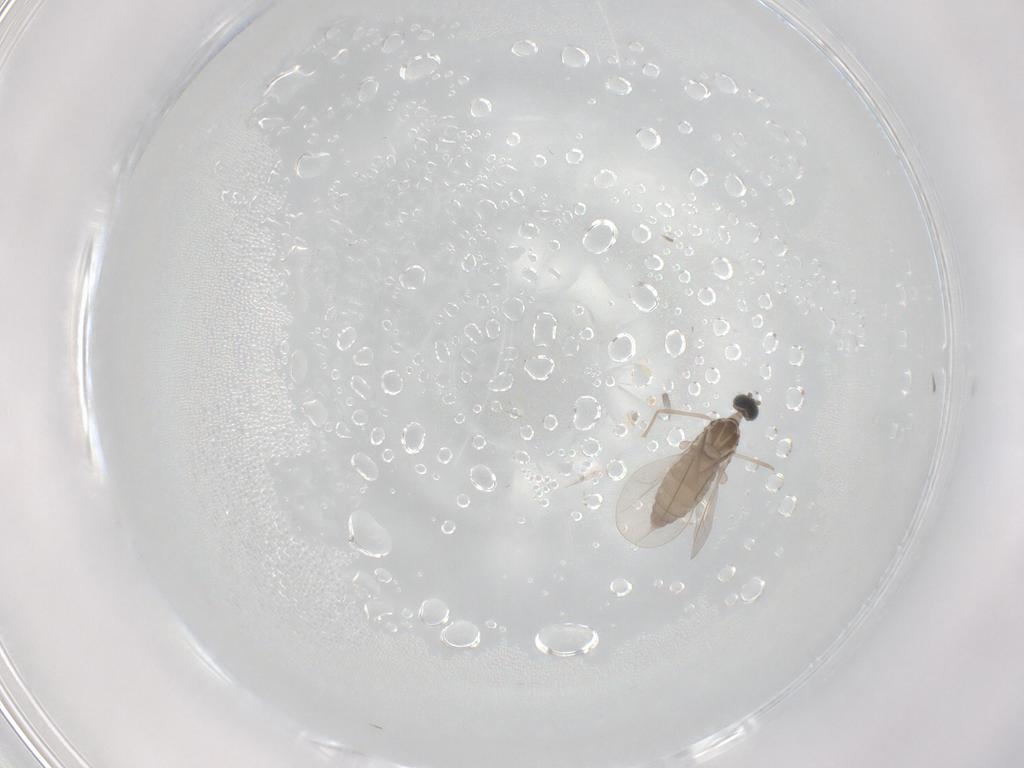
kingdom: Animalia
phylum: Arthropoda
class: Insecta
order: Diptera
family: Cecidomyiidae
